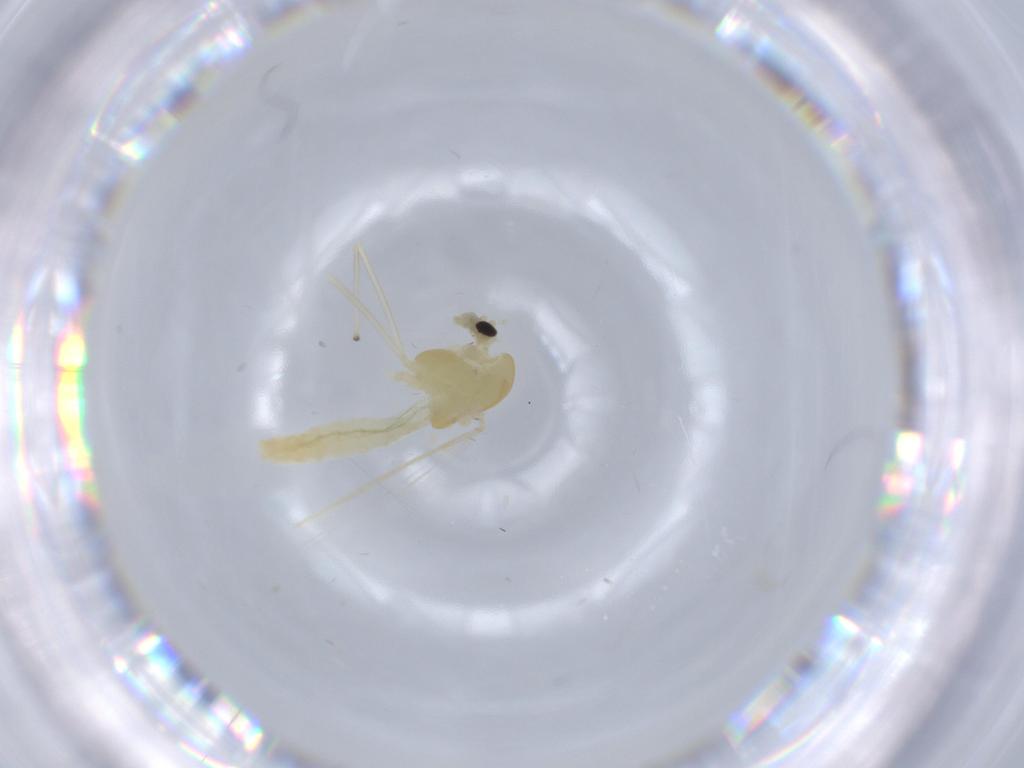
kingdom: Animalia
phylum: Arthropoda
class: Insecta
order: Diptera
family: Chironomidae
